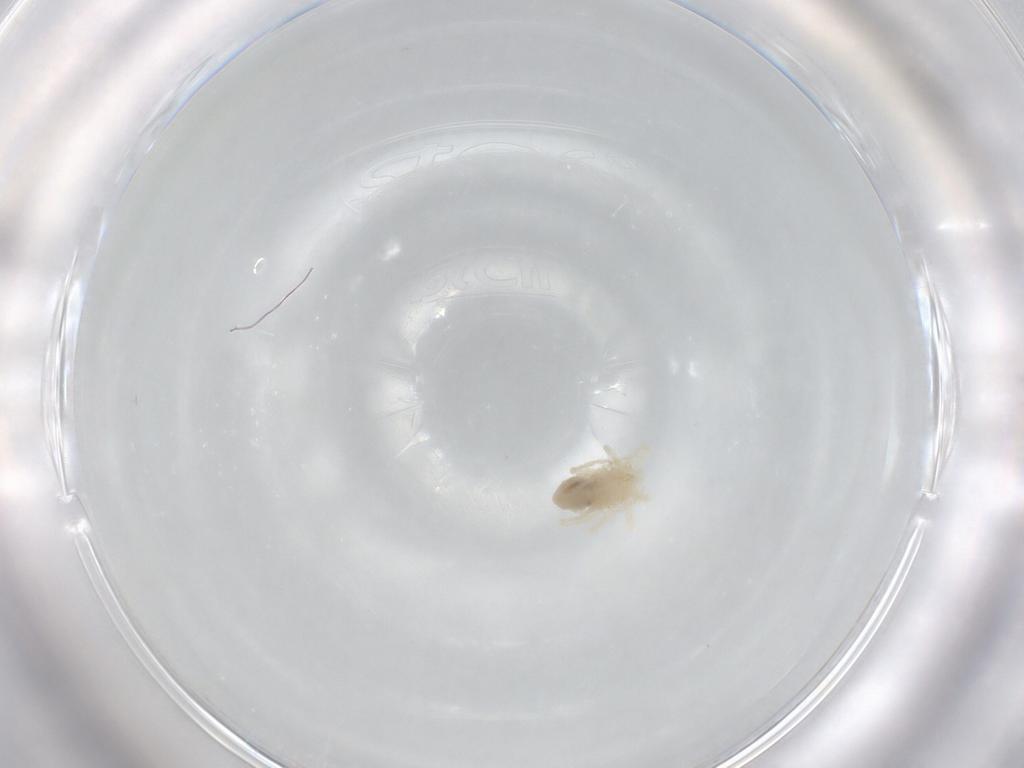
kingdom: Animalia
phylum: Arthropoda
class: Arachnida
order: Trombidiformes
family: Anystidae
